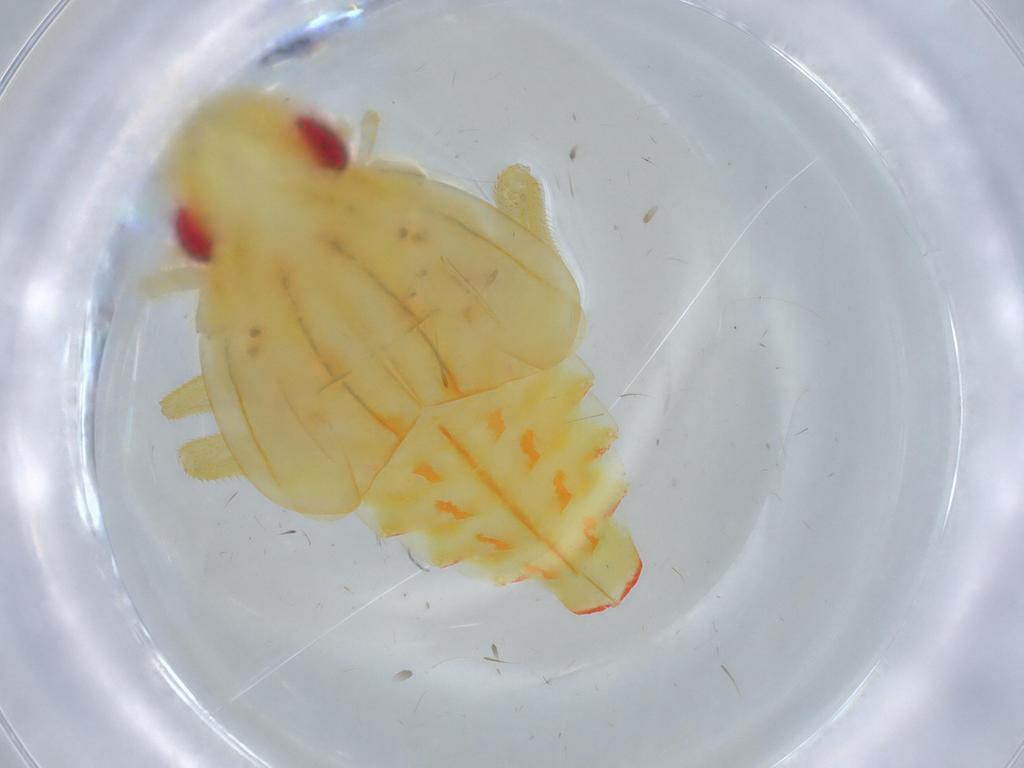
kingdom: Animalia
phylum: Arthropoda
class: Insecta
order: Hemiptera
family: Tropiduchidae
